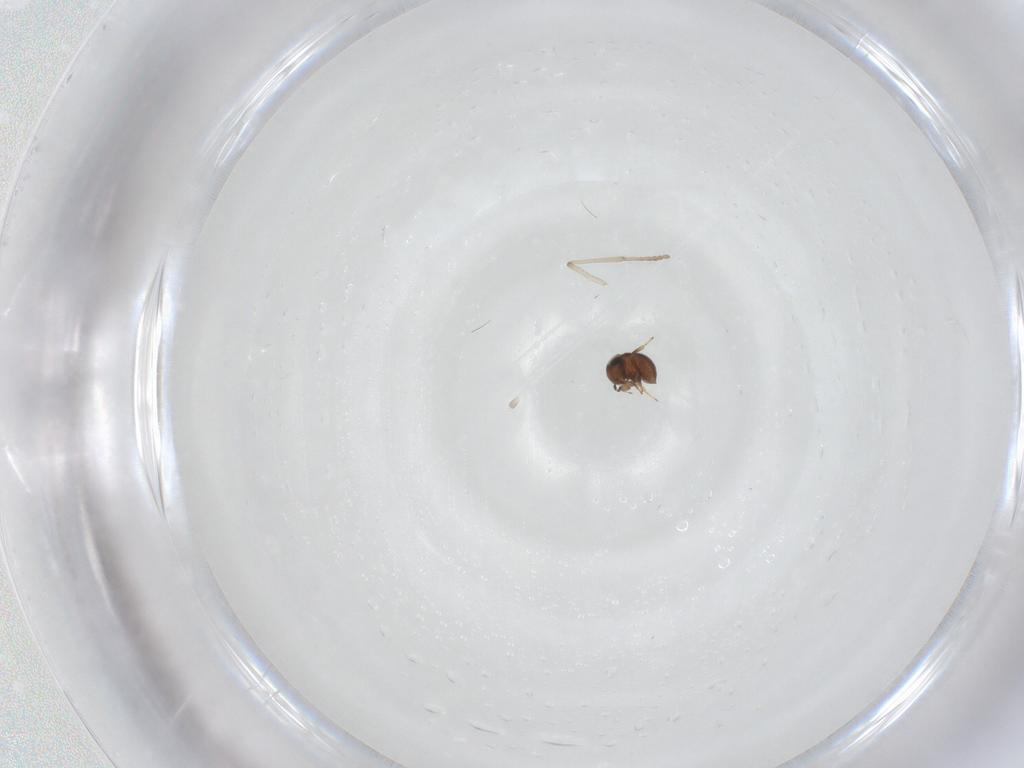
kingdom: Animalia
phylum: Arthropoda
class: Insecta
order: Hymenoptera
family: Scelionidae
